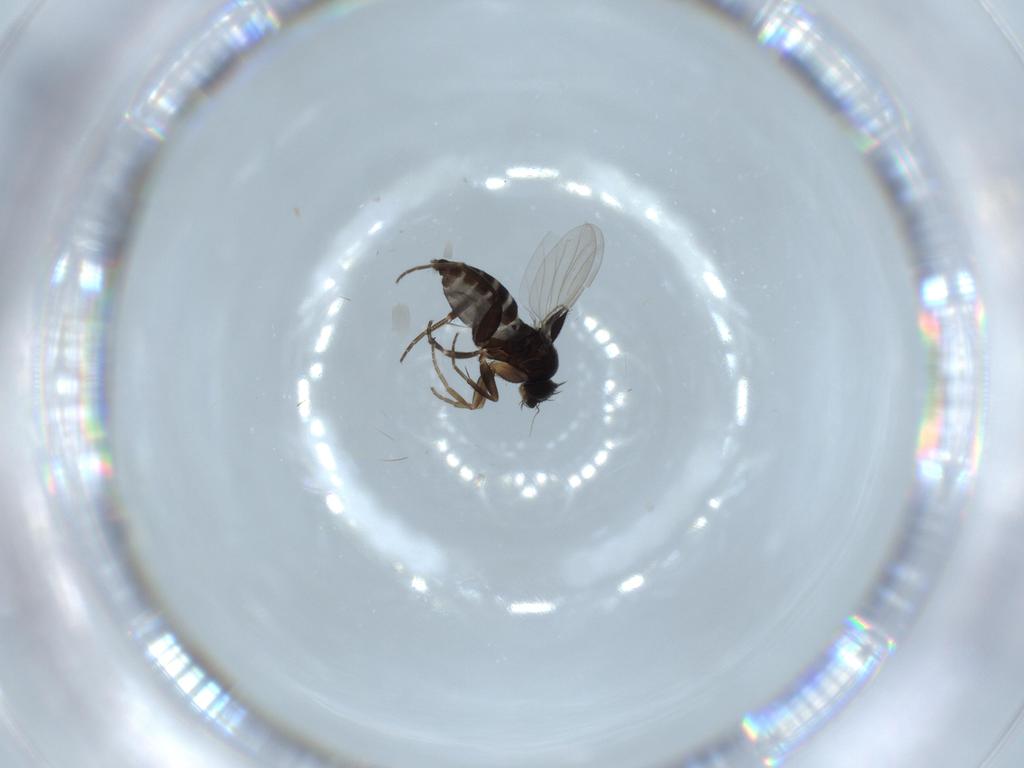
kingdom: Animalia
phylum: Arthropoda
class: Insecta
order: Diptera
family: Phoridae
